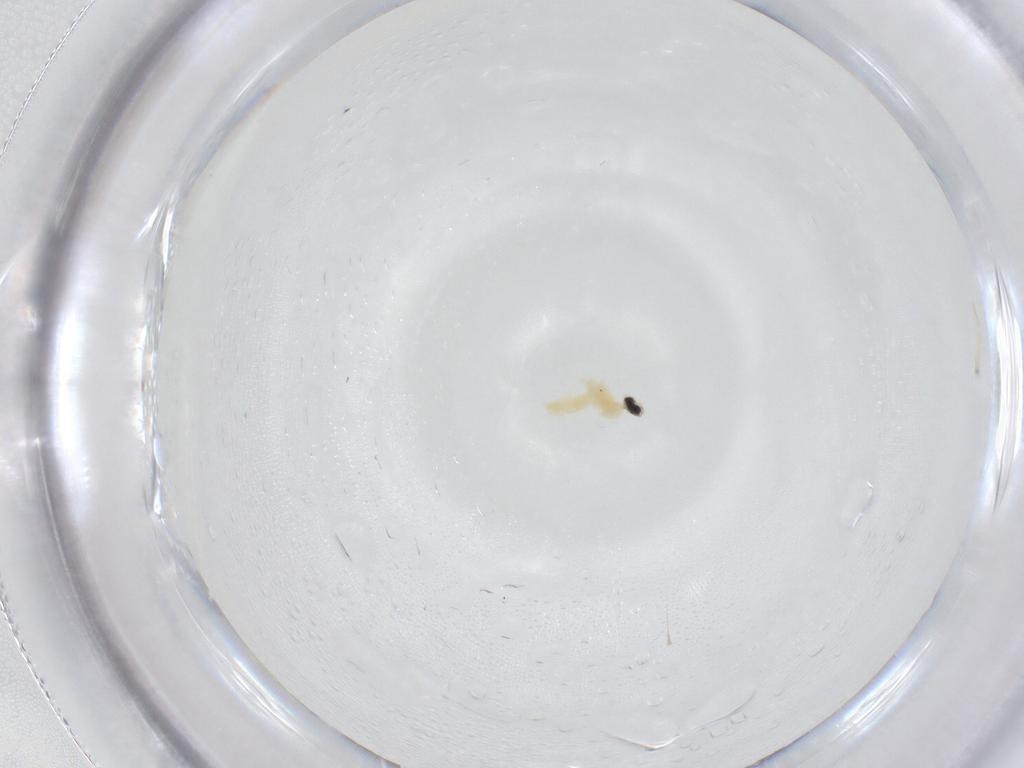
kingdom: Animalia
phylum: Arthropoda
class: Insecta
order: Diptera
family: Cecidomyiidae
